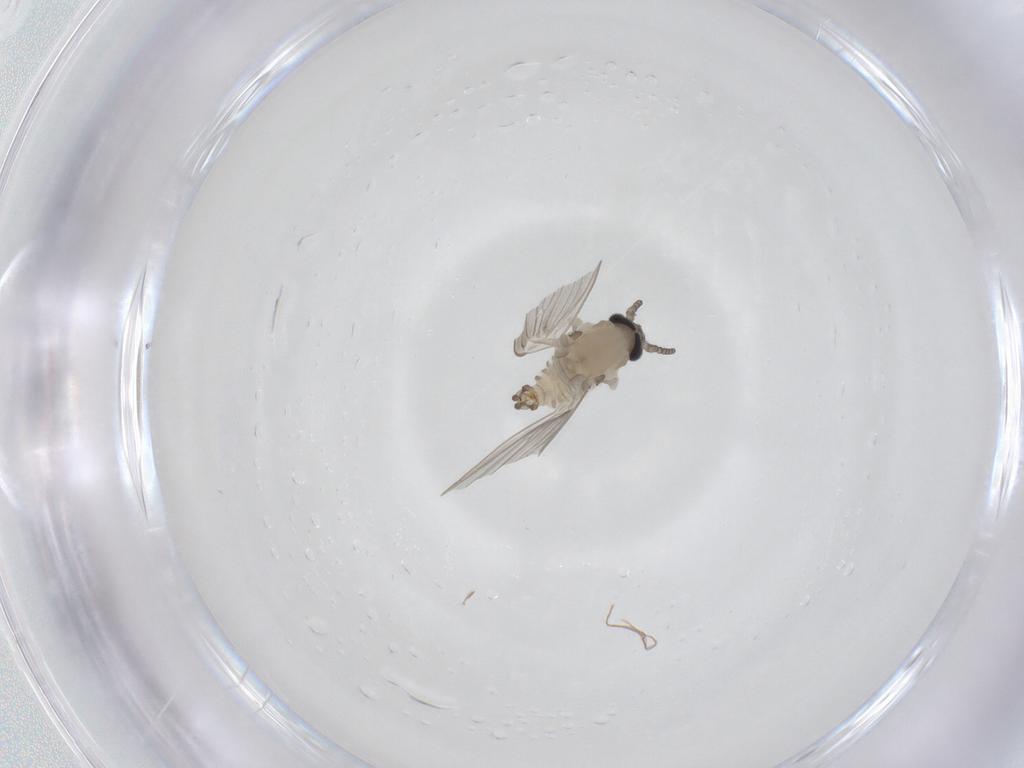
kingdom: Animalia
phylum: Arthropoda
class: Insecta
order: Diptera
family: Psychodidae
